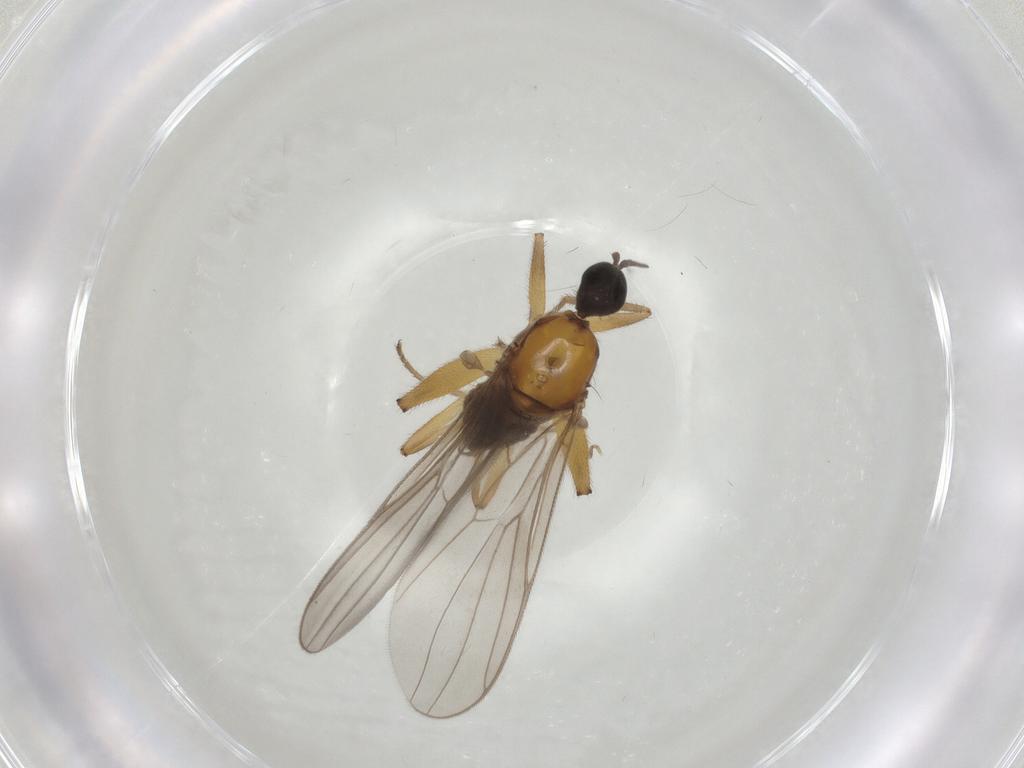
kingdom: Animalia
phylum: Arthropoda
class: Insecta
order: Diptera
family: Hybotidae
